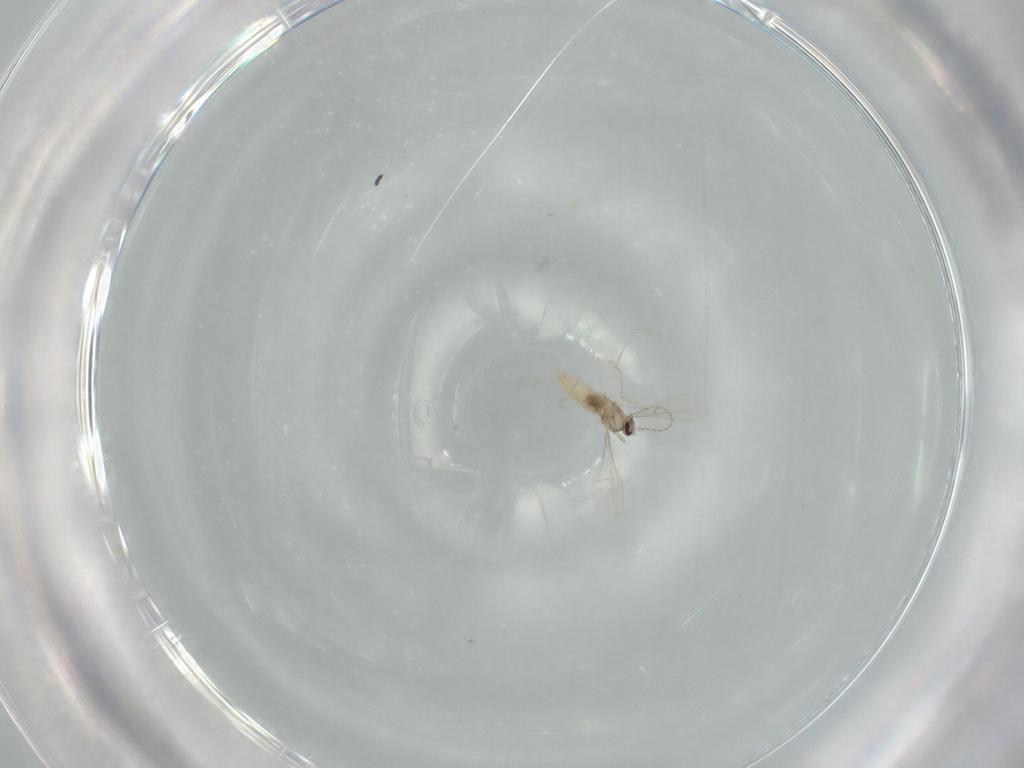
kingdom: Animalia
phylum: Arthropoda
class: Insecta
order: Diptera
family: Cecidomyiidae
